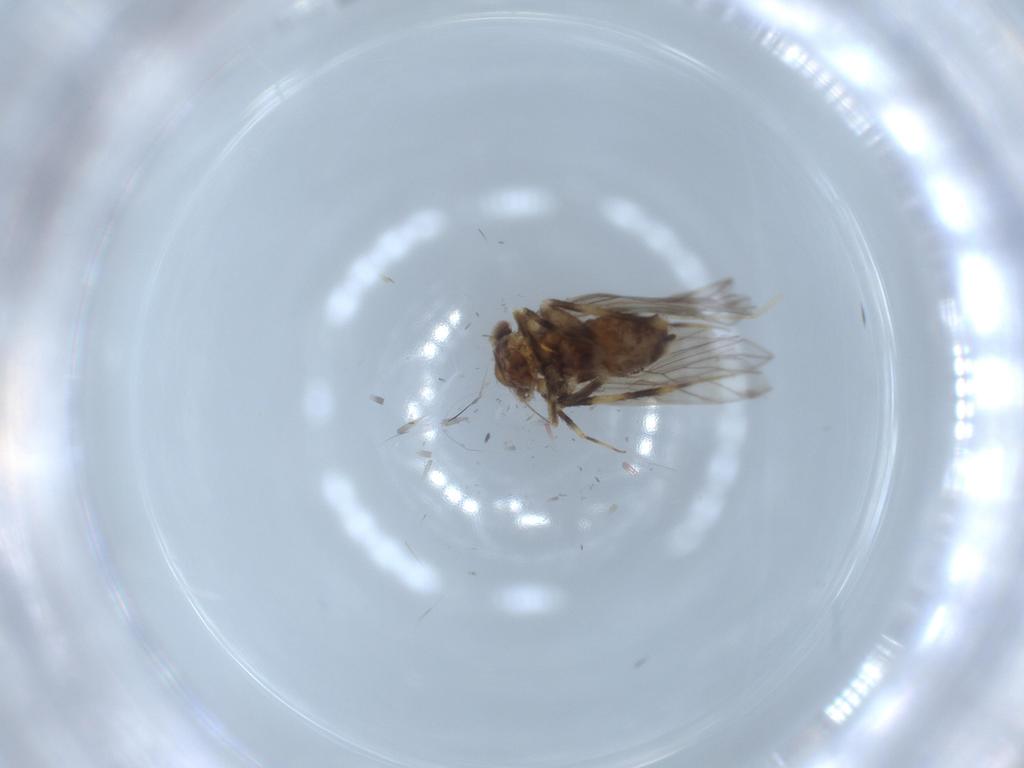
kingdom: Animalia
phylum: Arthropoda
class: Insecta
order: Psocodea
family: Lepidopsocidae
